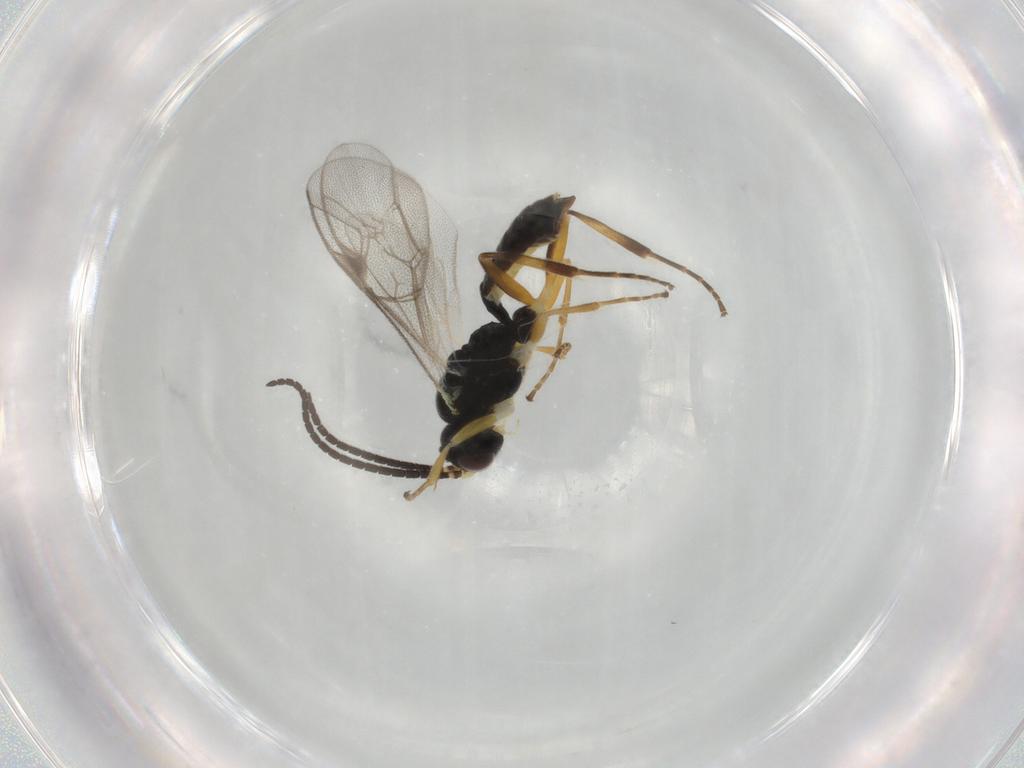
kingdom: Animalia
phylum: Arthropoda
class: Insecta
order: Hymenoptera
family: Ichneumonidae
